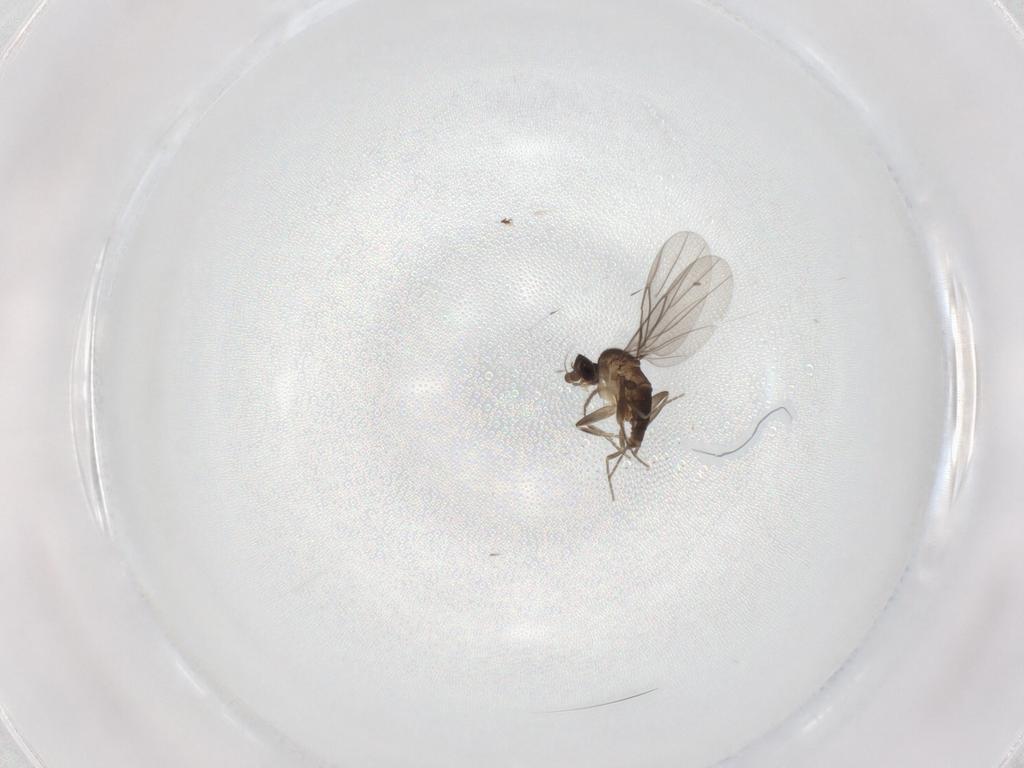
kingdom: Animalia
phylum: Arthropoda
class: Insecta
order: Diptera
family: Sciaridae
